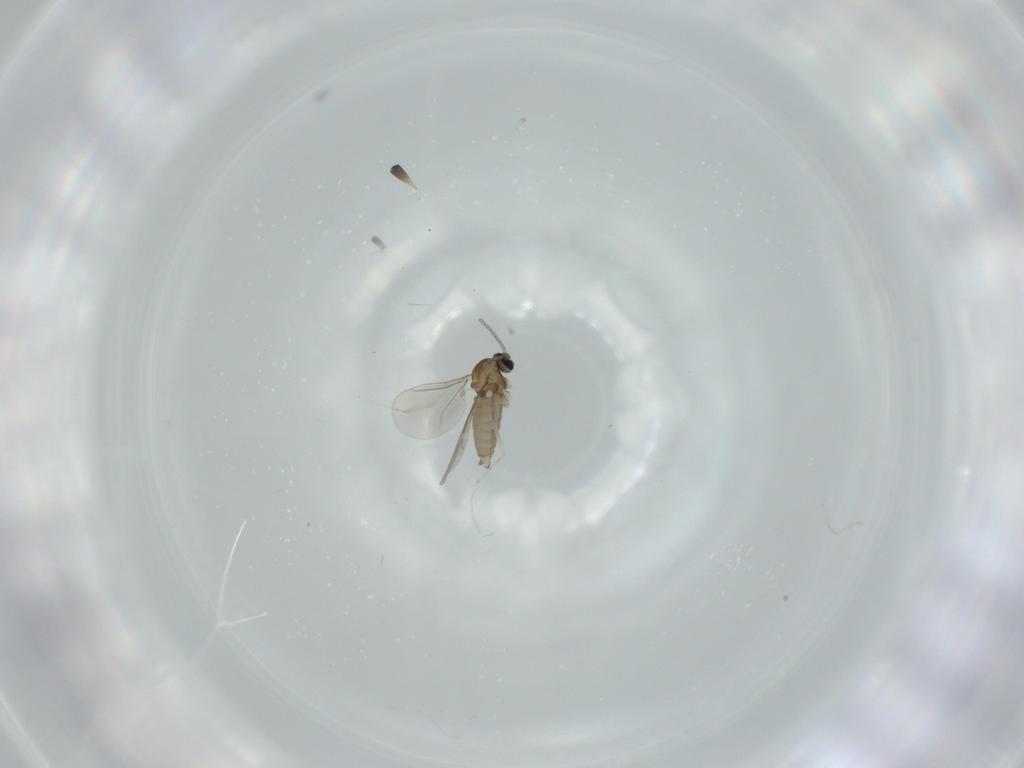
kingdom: Animalia
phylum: Arthropoda
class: Insecta
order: Diptera
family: Cecidomyiidae
